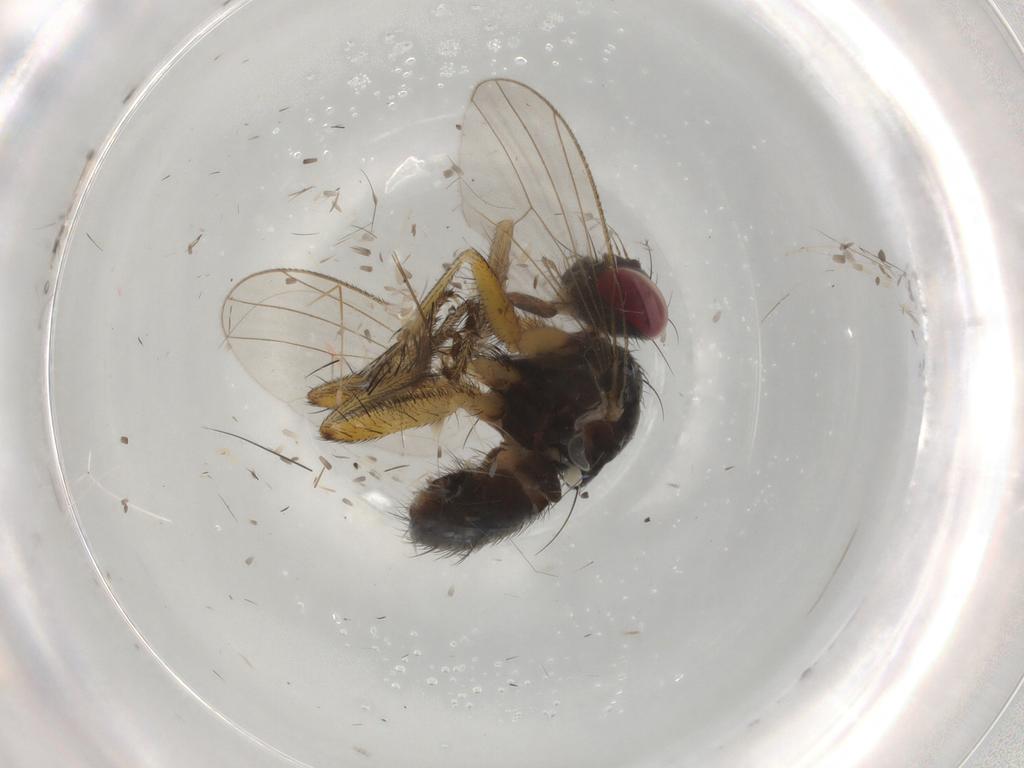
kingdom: Animalia
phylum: Arthropoda
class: Insecta
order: Diptera
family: Muscidae
